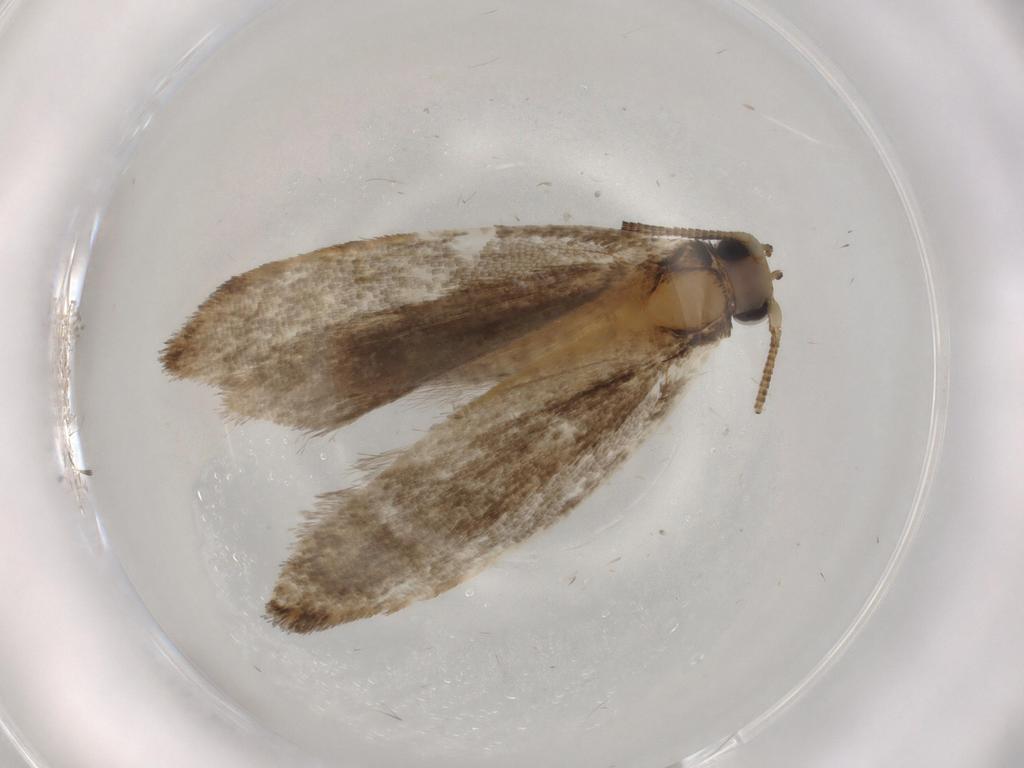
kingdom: Animalia
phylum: Arthropoda
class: Insecta
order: Lepidoptera
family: Tineidae
